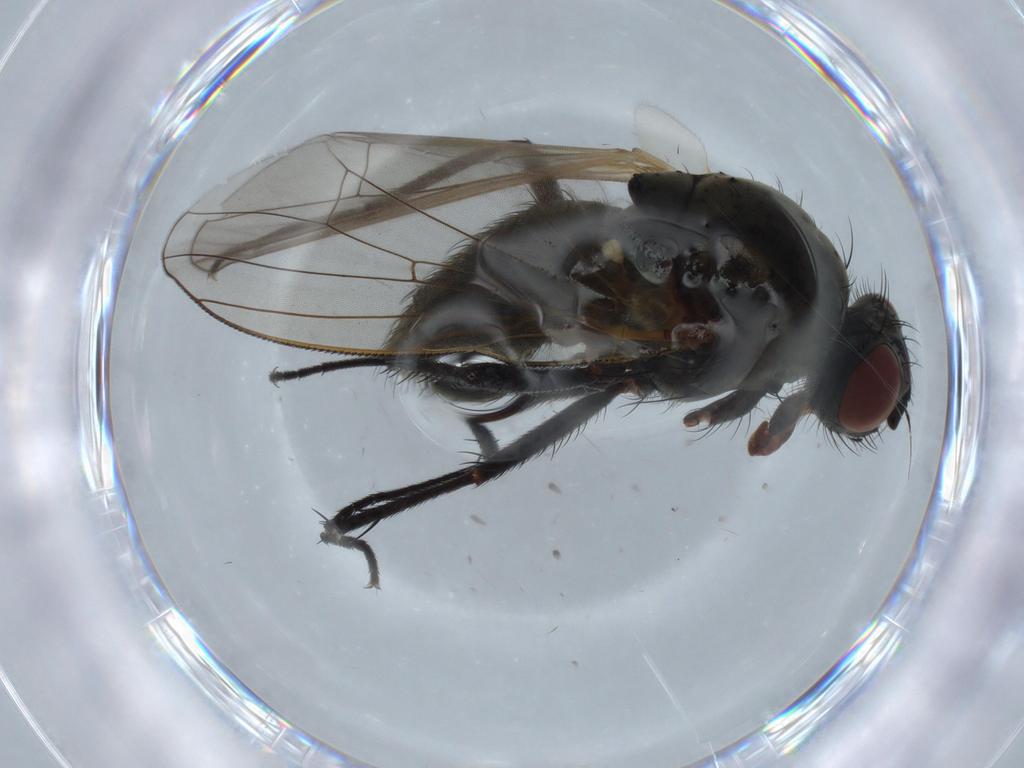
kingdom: Animalia
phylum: Arthropoda
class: Insecta
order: Diptera
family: Anthomyiidae
